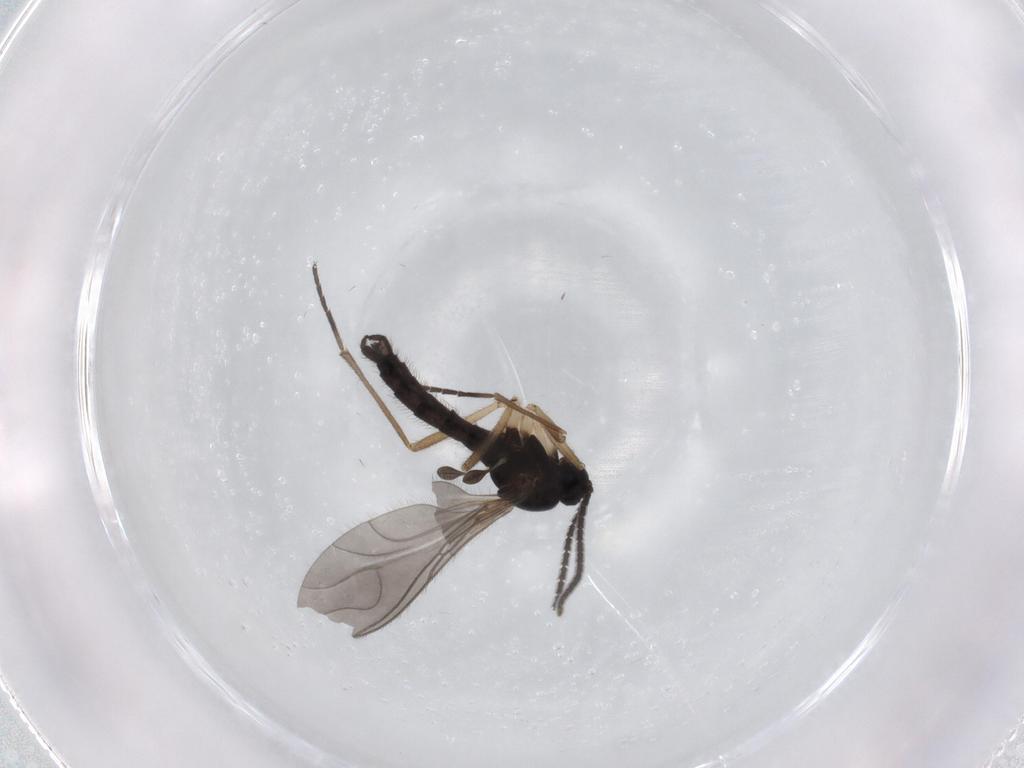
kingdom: Animalia
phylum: Arthropoda
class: Insecta
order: Diptera
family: Sciaridae
